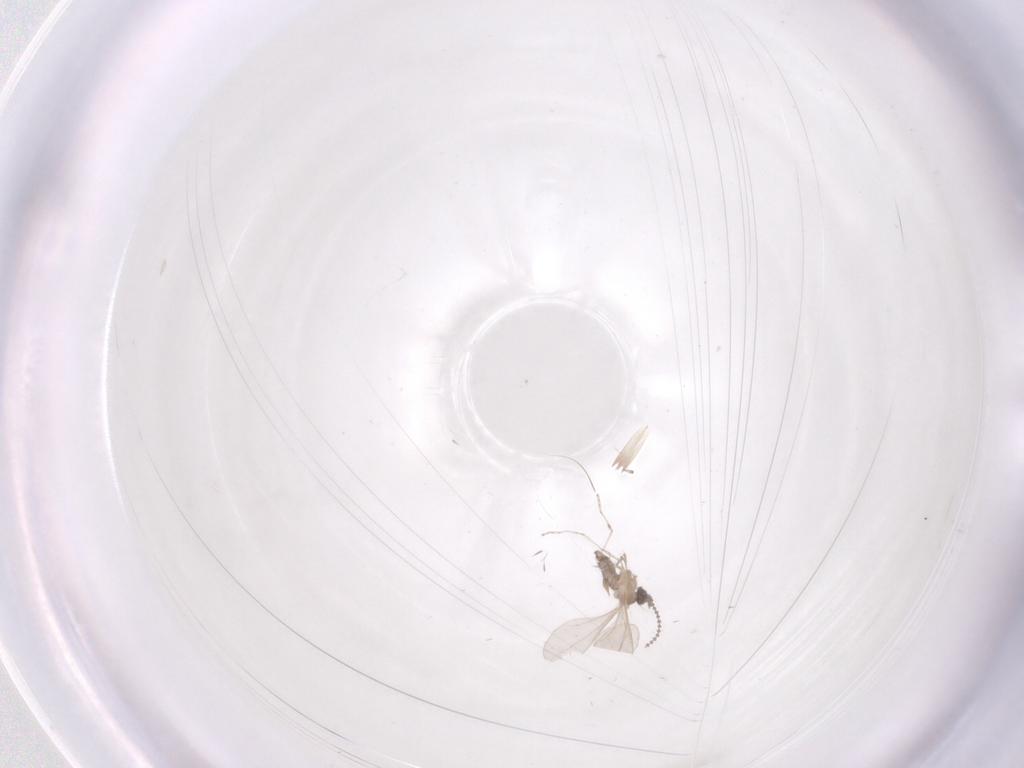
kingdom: Animalia
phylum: Arthropoda
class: Insecta
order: Diptera
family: Cecidomyiidae
